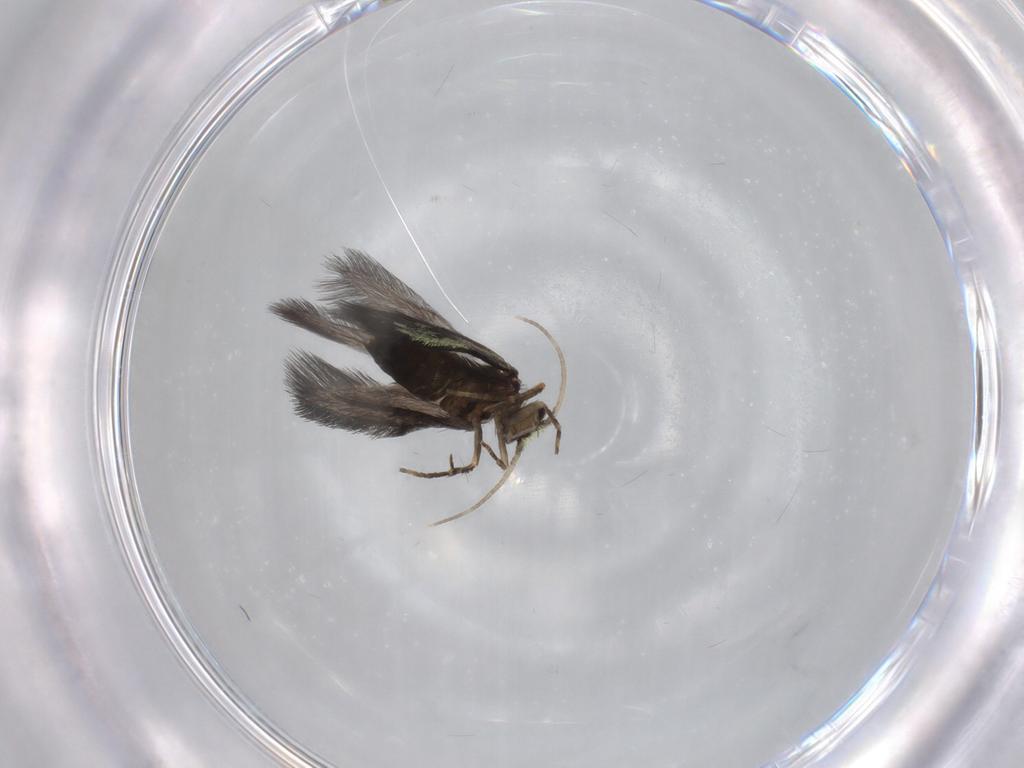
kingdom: Animalia
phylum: Arthropoda
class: Insecta
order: Trichoptera
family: Hydroptilidae
